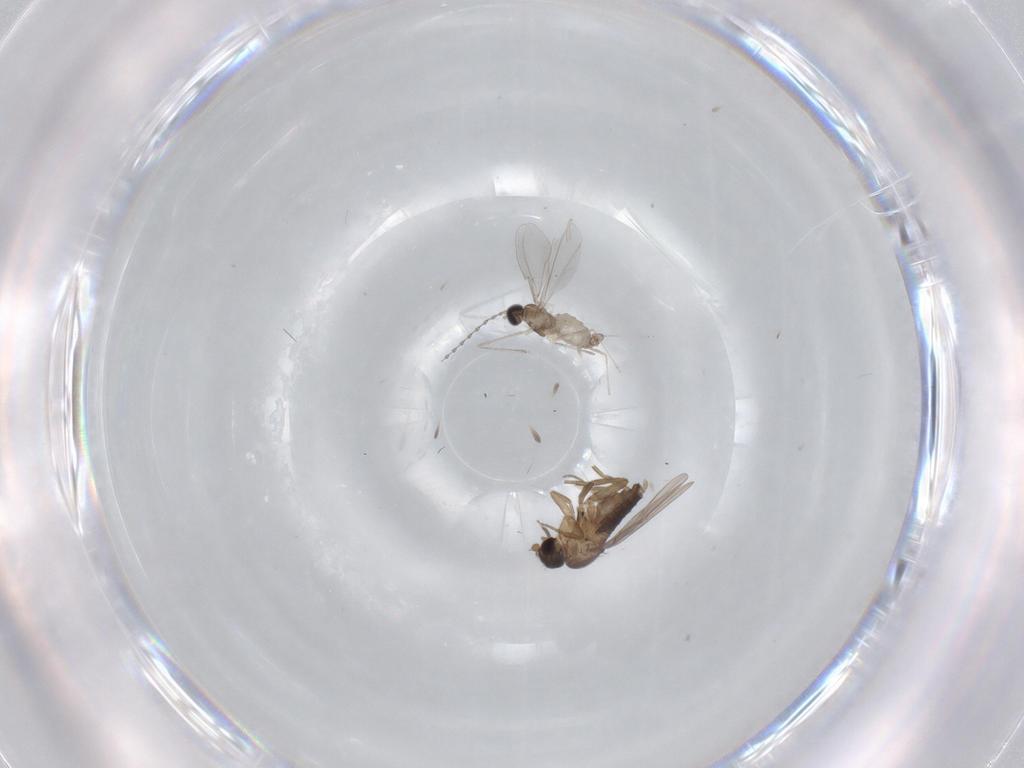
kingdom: Animalia
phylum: Arthropoda
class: Insecta
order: Diptera
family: Cecidomyiidae
